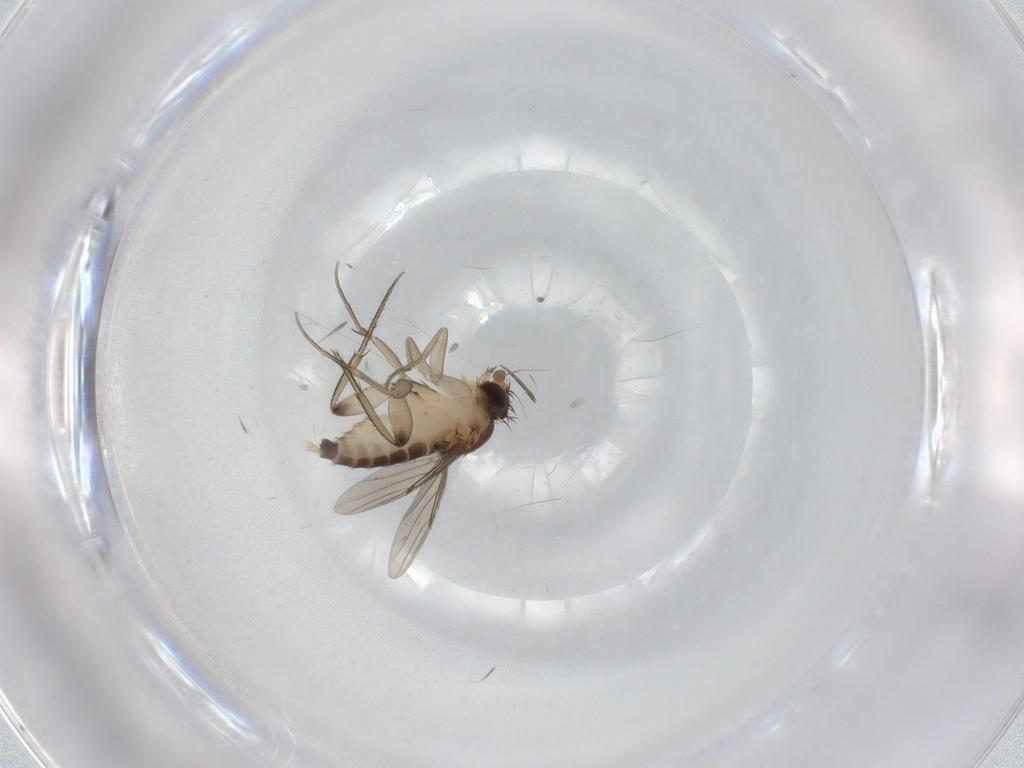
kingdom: Animalia
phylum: Arthropoda
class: Insecta
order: Diptera
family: Phoridae
